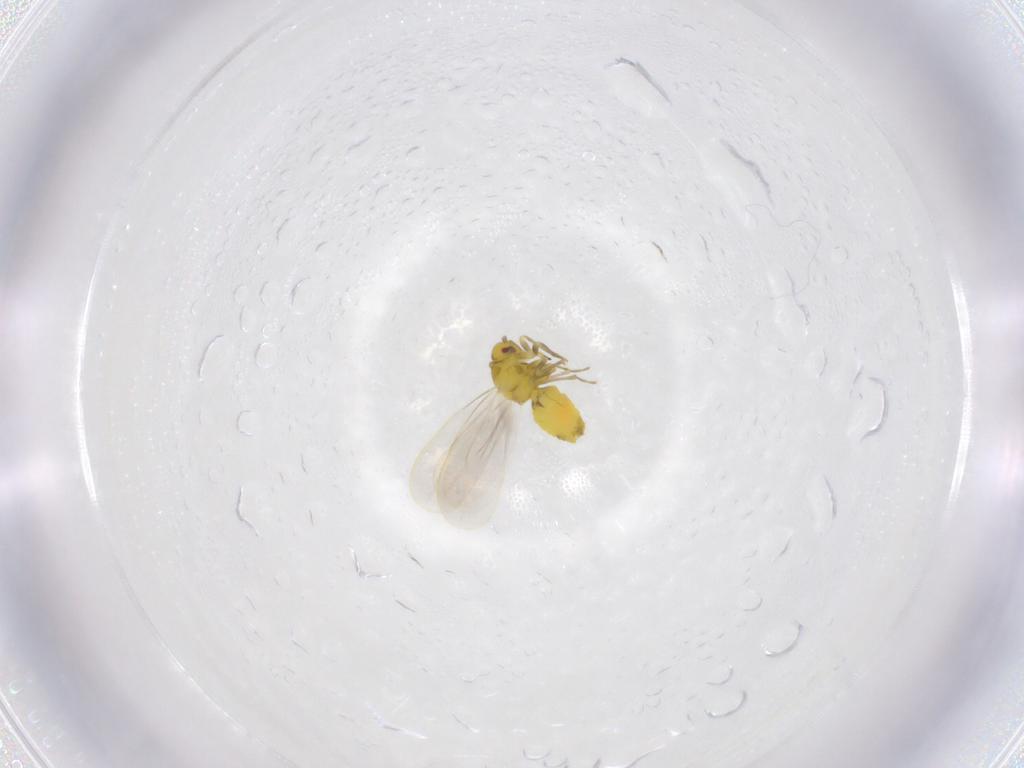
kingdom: Animalia
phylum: Arthropoda
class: Insecta
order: Hemiptera
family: Aleyrodidae
